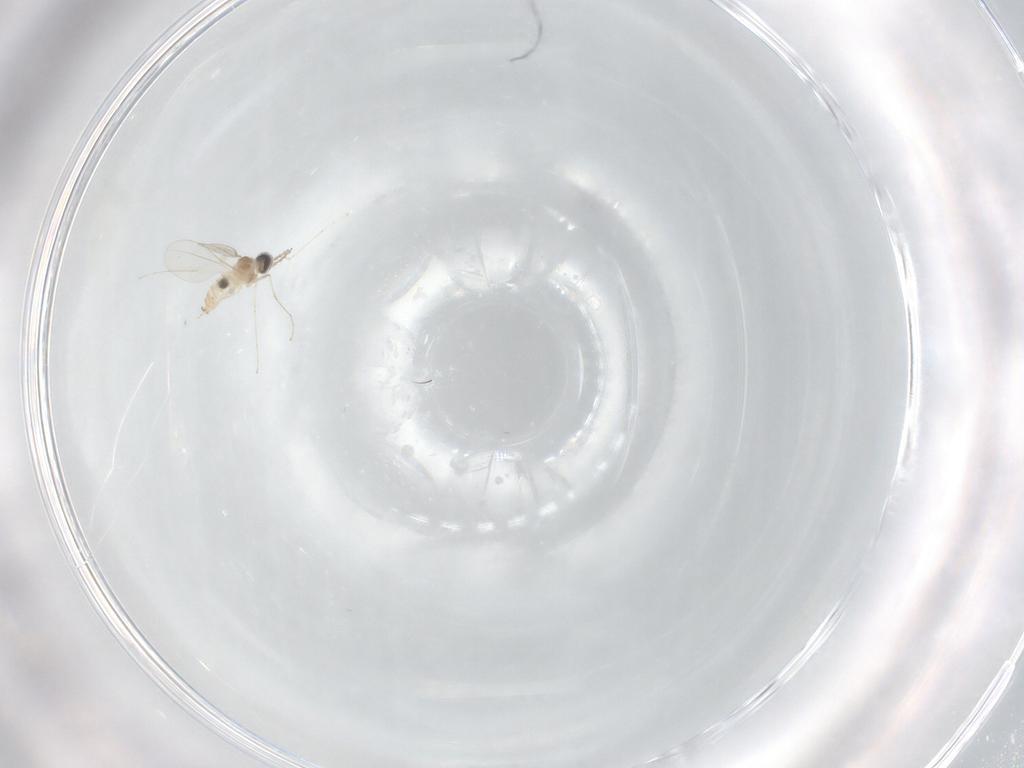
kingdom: Animalia
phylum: Arthropoda
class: Insecta
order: Diptera
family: Cecidomyiidae
